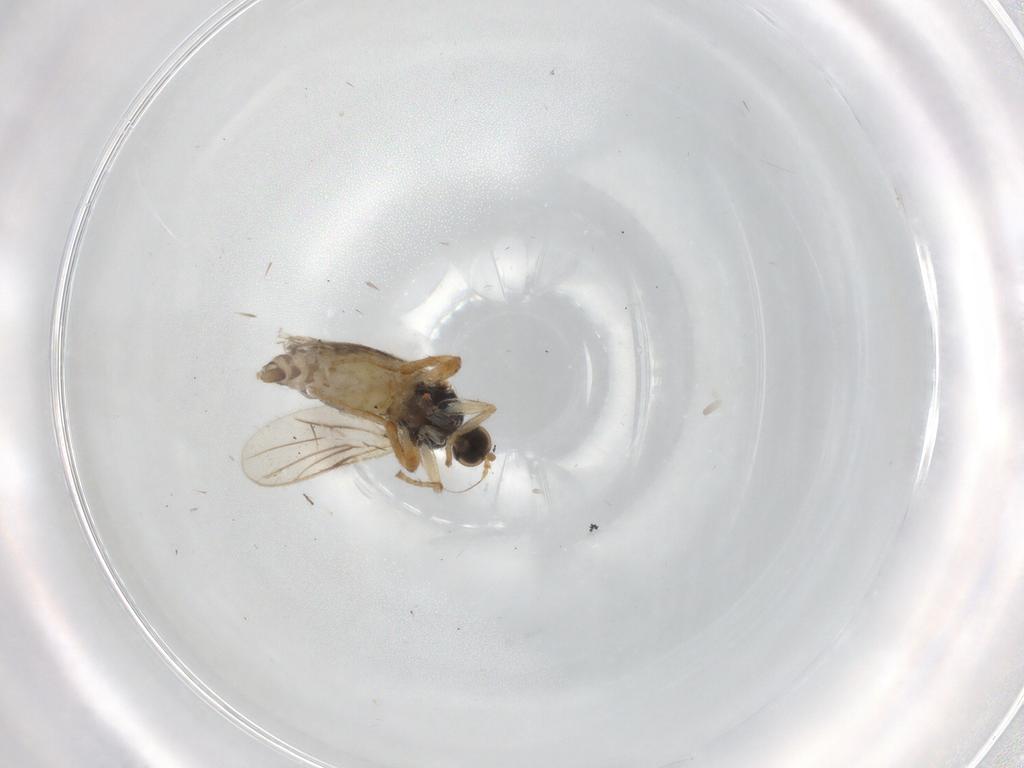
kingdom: Animalia
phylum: Arthropoda
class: Insecta
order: Diptera
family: Hybotidae
